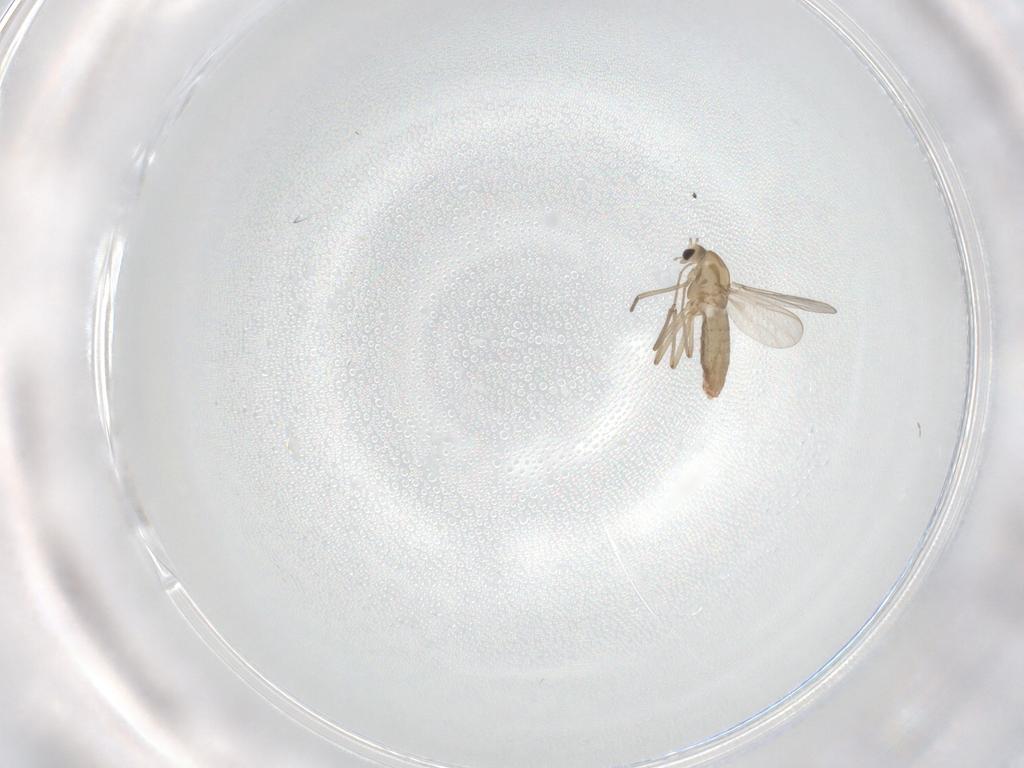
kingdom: Animalia
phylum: Arthropoda
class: Insecta
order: Diptera
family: Chironomidae
